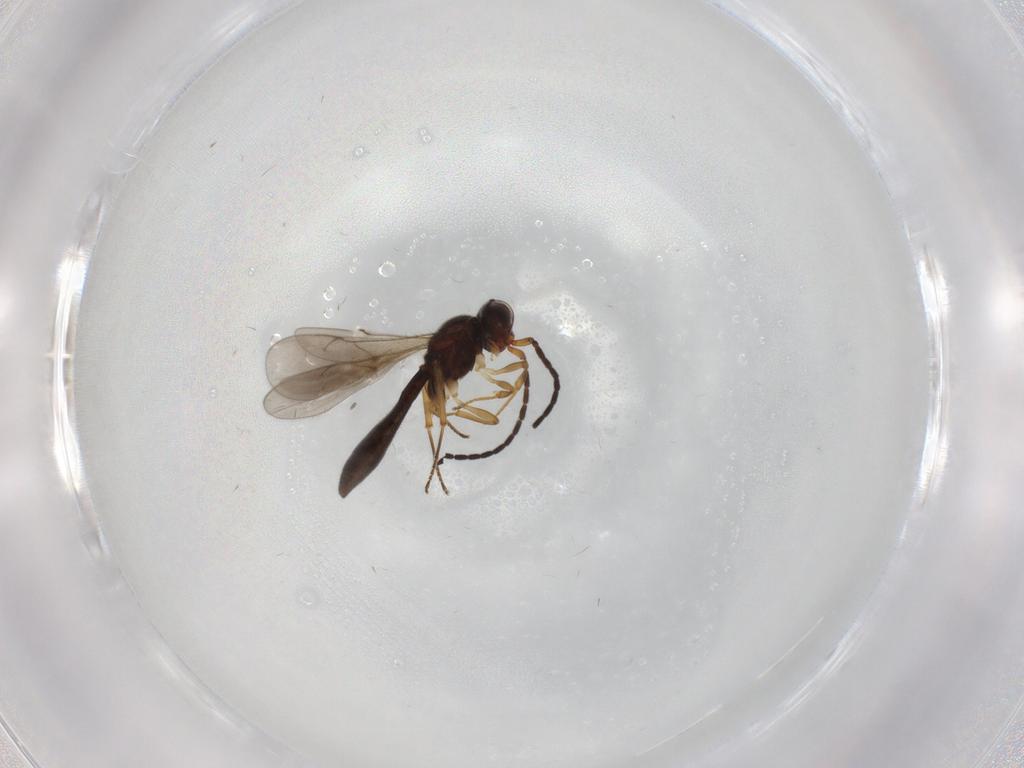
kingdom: Animalia
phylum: Arthropoda
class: Insecta
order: Hymenoptera
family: Scelionidae
